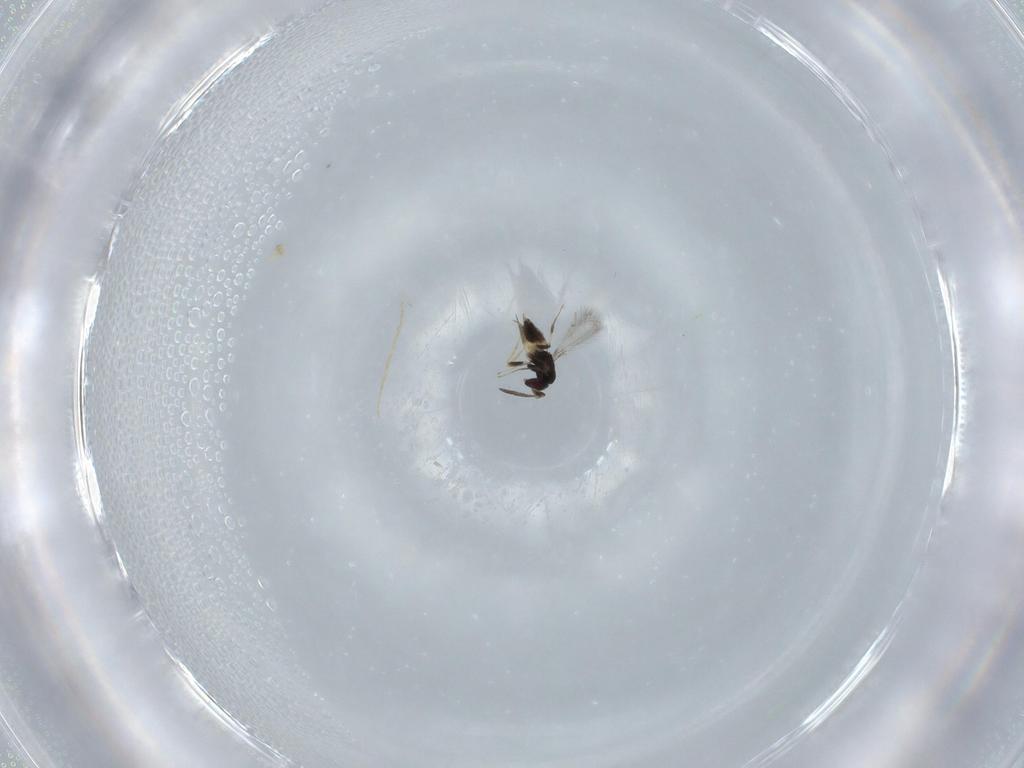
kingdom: Animalia
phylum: Arthropoda
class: Insecta
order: Hymenoptera
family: Mymaridae
